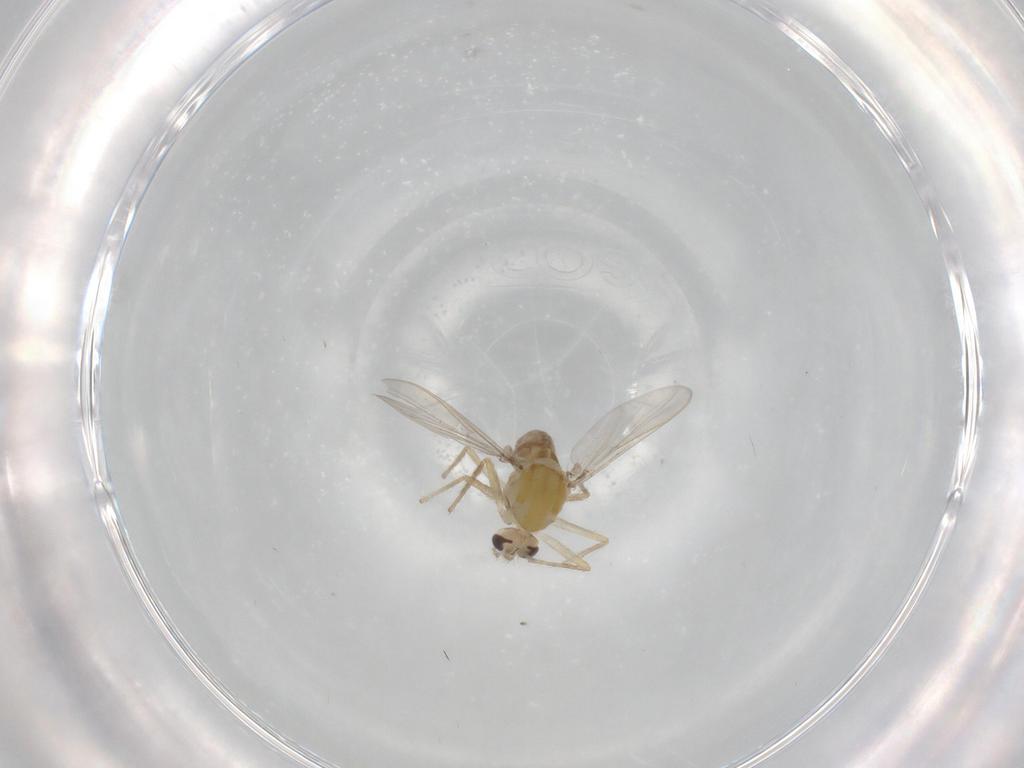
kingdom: Animalia
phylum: Arthropoda
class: Insecta
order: Diptera
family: Chironomidae
